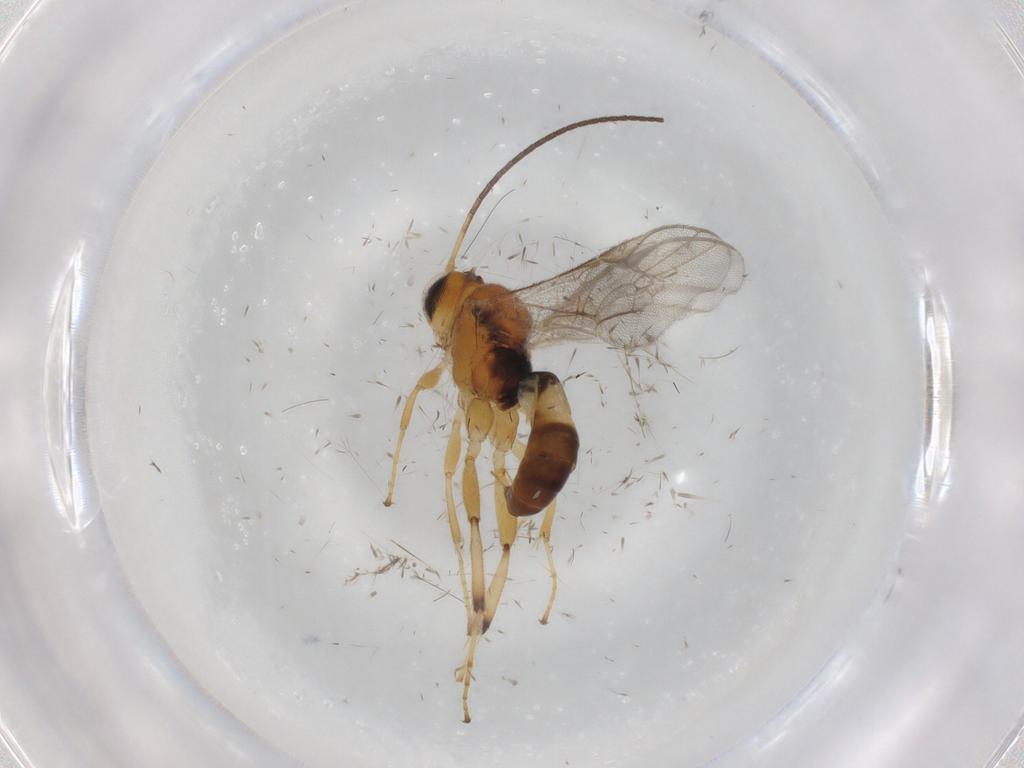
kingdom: Animalia
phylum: Arthropoda
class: Insecta
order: Hymenoptera
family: Ichneumonidae
